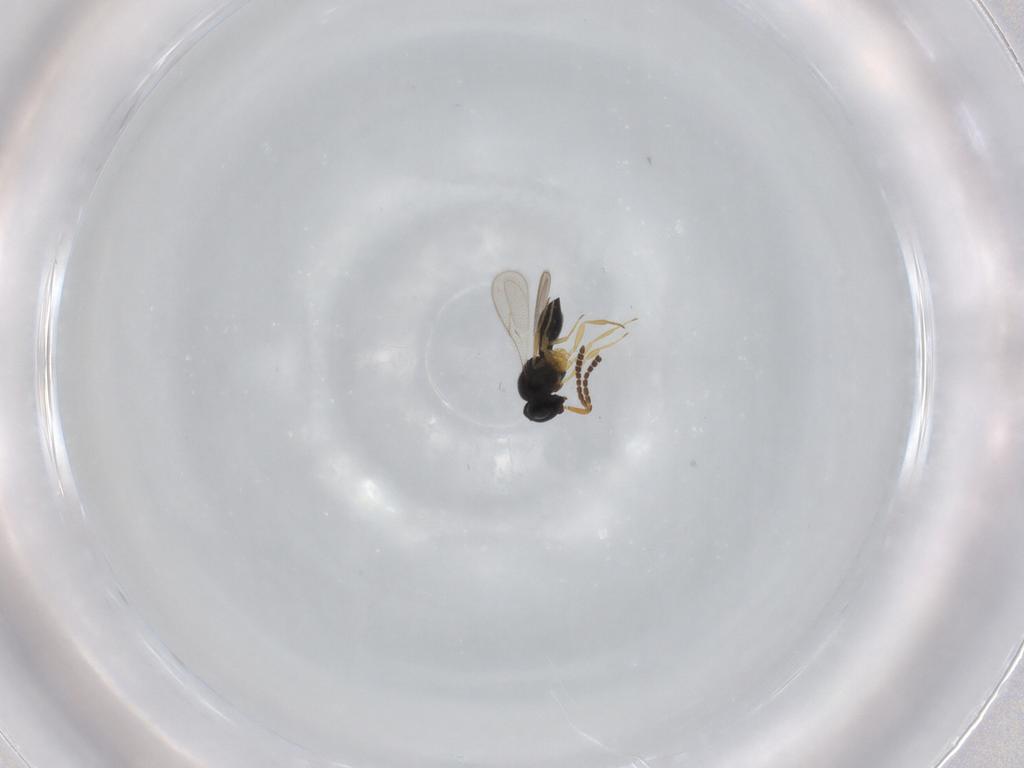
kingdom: Animalia
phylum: Arthropoda
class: Insecta
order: Hymenoptera
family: Scelionidae
